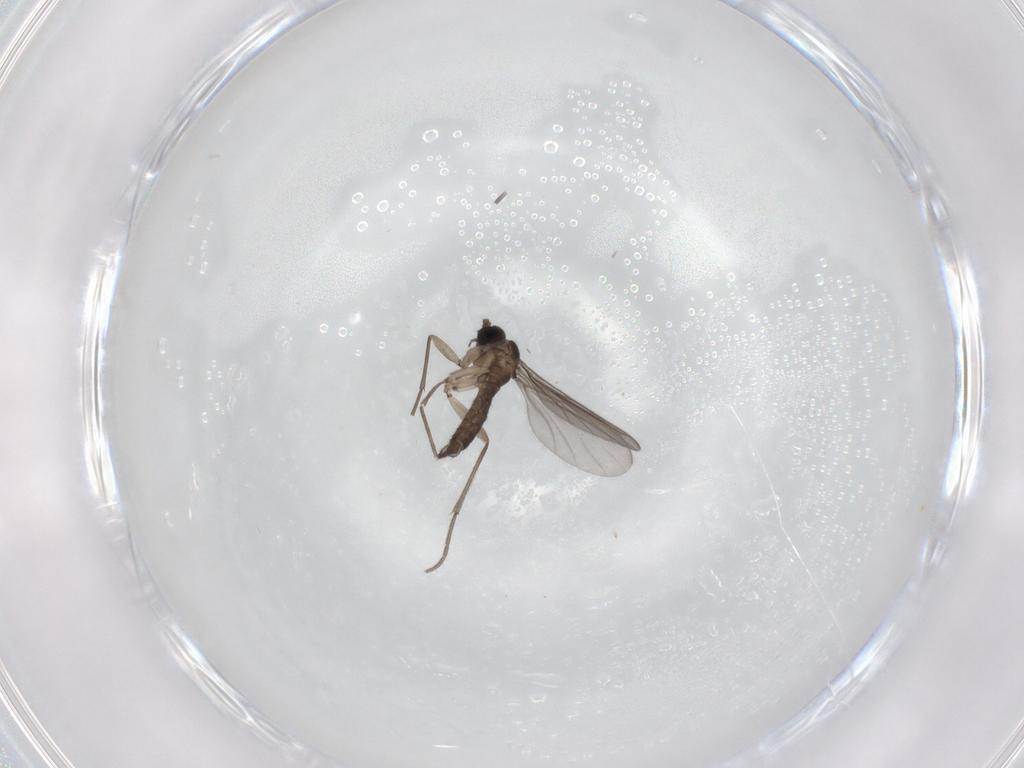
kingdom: Animalia
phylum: Arthropoda
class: Insecta
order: Diptera
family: Sciaridae
